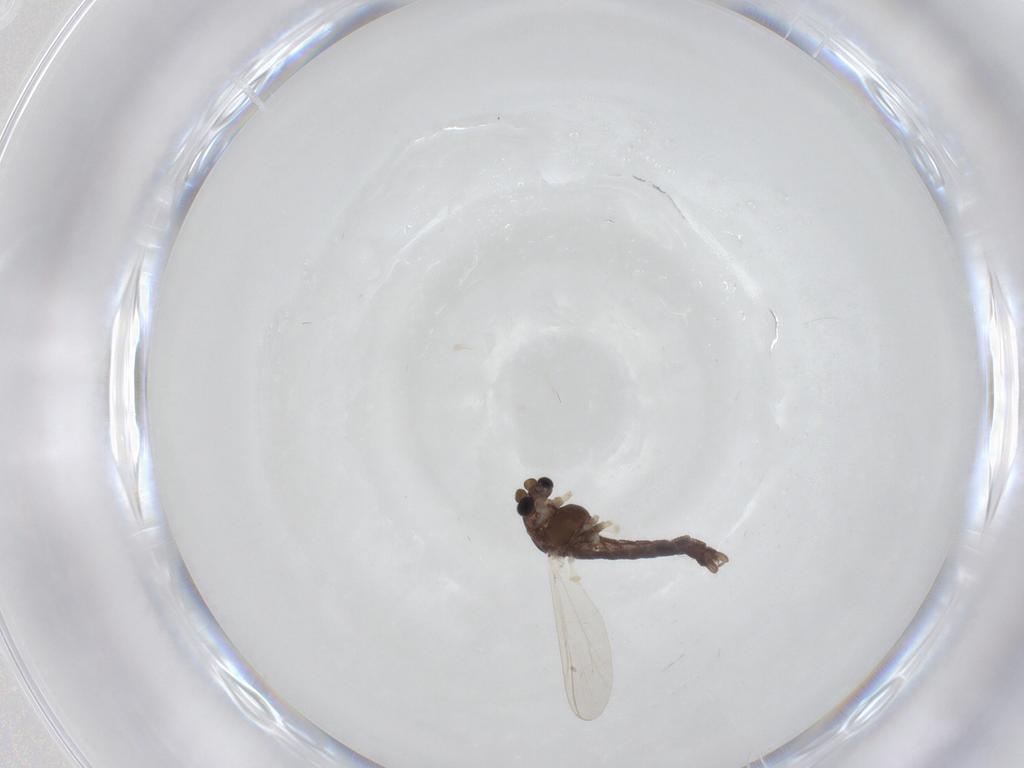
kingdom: Animalia
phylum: Arthropoda
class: Insecta
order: Diptera
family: Chironomidae
